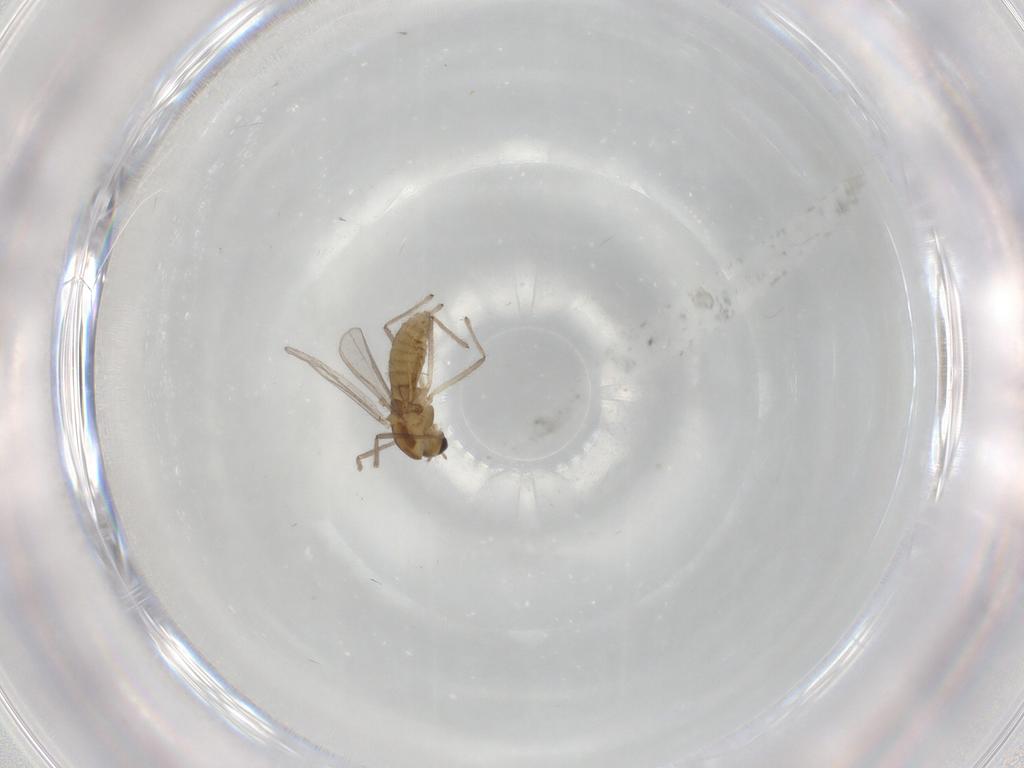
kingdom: Animalia
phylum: Arthropoda
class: Insecta
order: Diptera
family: Chironomidae
